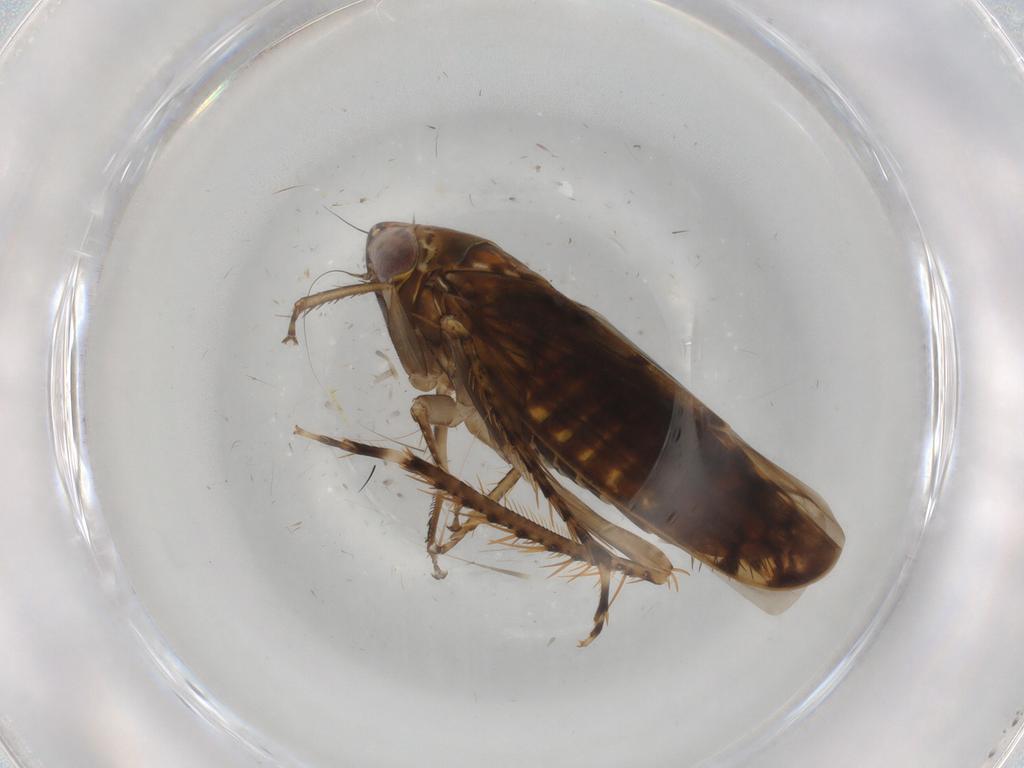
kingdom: Animalia
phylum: Arthropoda
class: Insecta
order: Hemiptera
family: Cicadellidae
